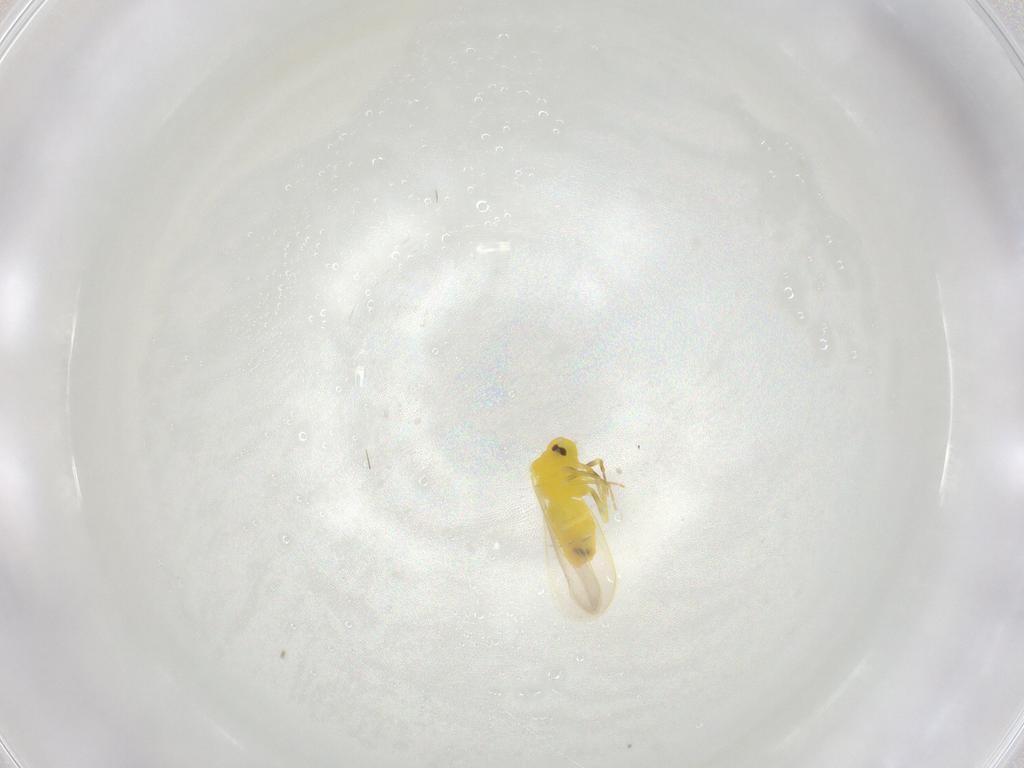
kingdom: Animalia
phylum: Arthropoda
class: Insecta
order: Hemiptera
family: Aleyrodidae
